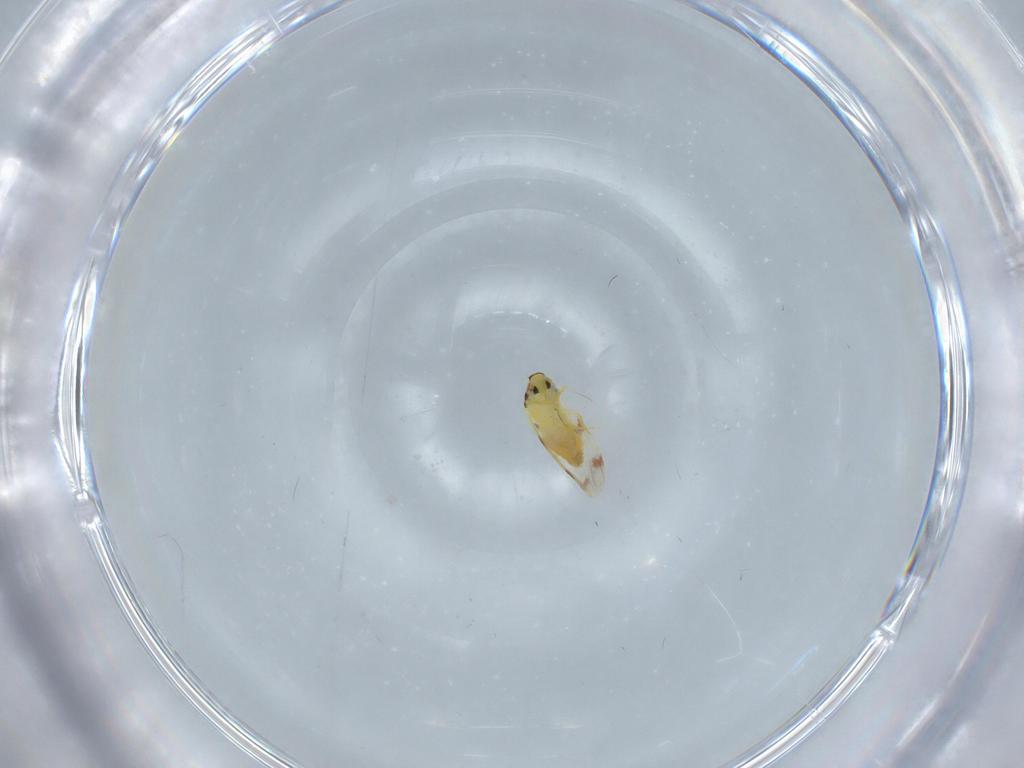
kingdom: Animalia
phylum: Arthropoda
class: Insecta
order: Hemiptera
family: Aleyrodidae
